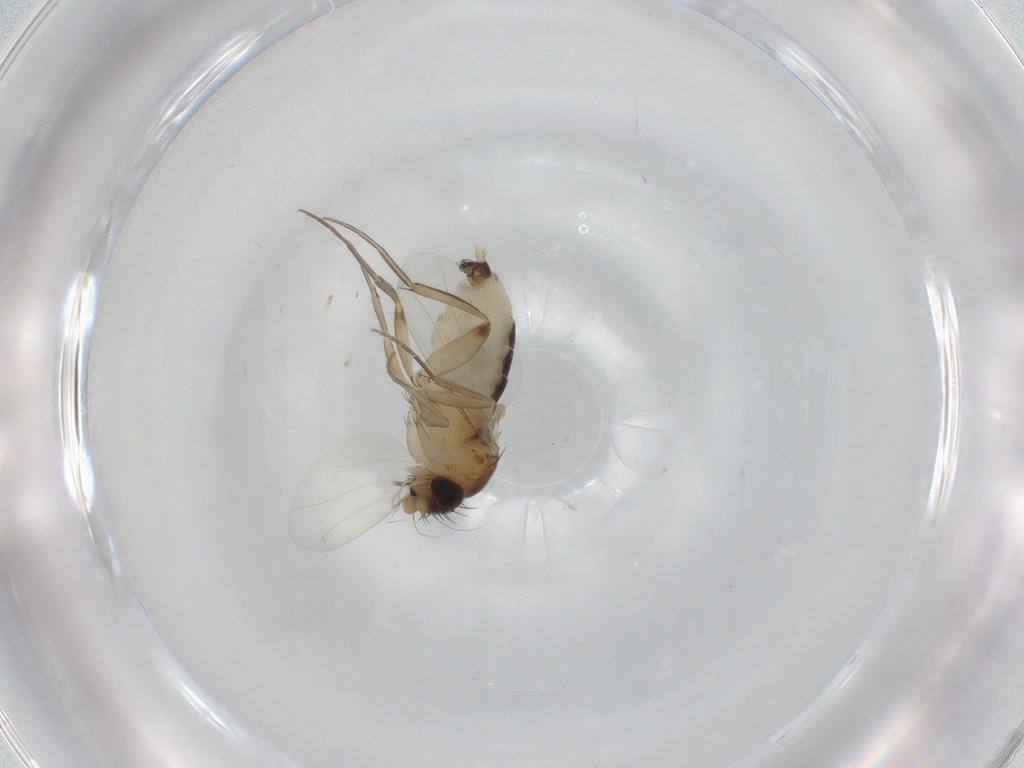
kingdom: Animalia
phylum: Arthropoda
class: Insecta
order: Diptera
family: Phoridae
